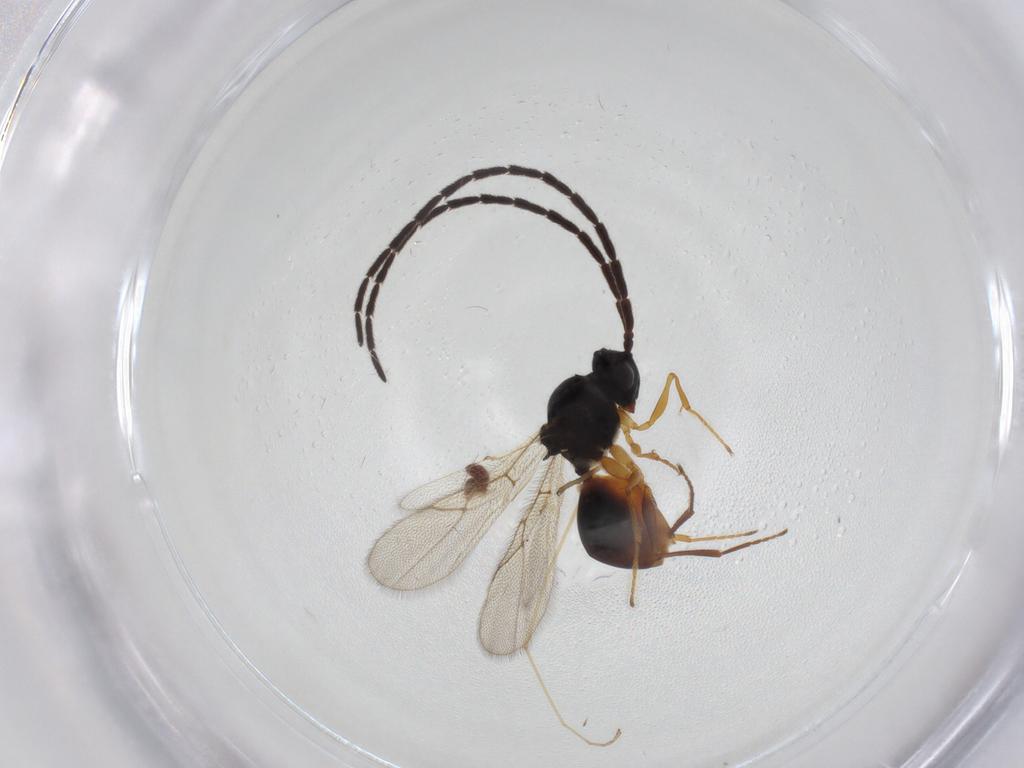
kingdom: Animalia
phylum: Arthropoda
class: Insecta
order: Hymenoptera
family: Figitidae
